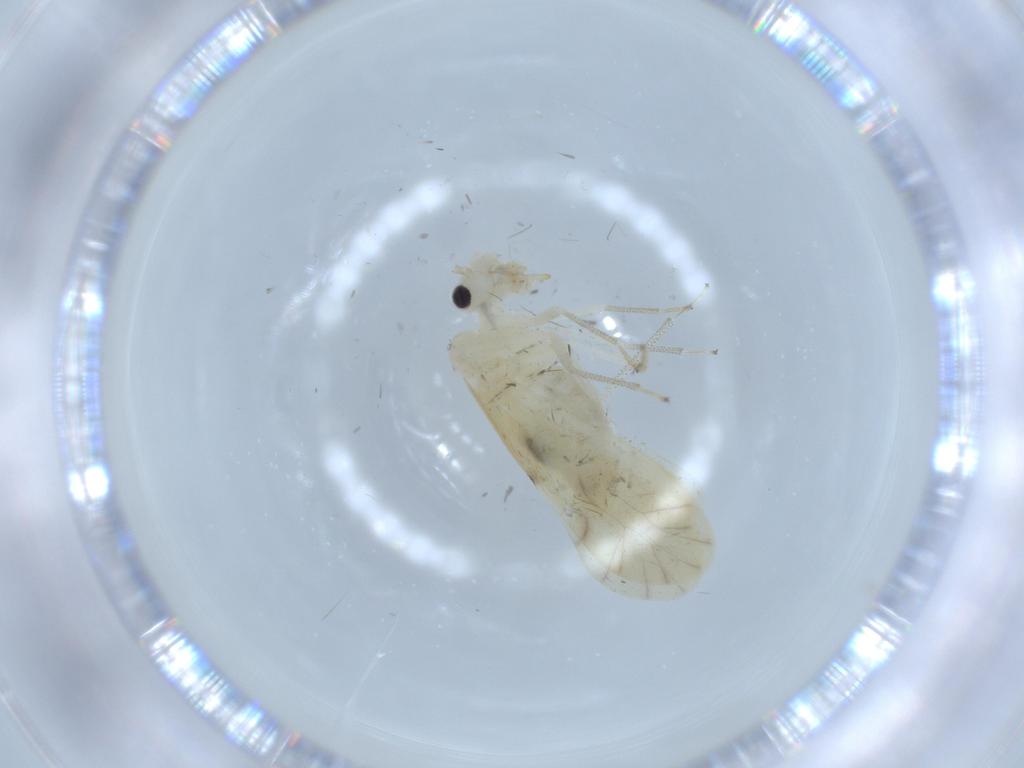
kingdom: Animalia
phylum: Arthropoda
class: Insecta
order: Psocodea
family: Caeciliusidae
